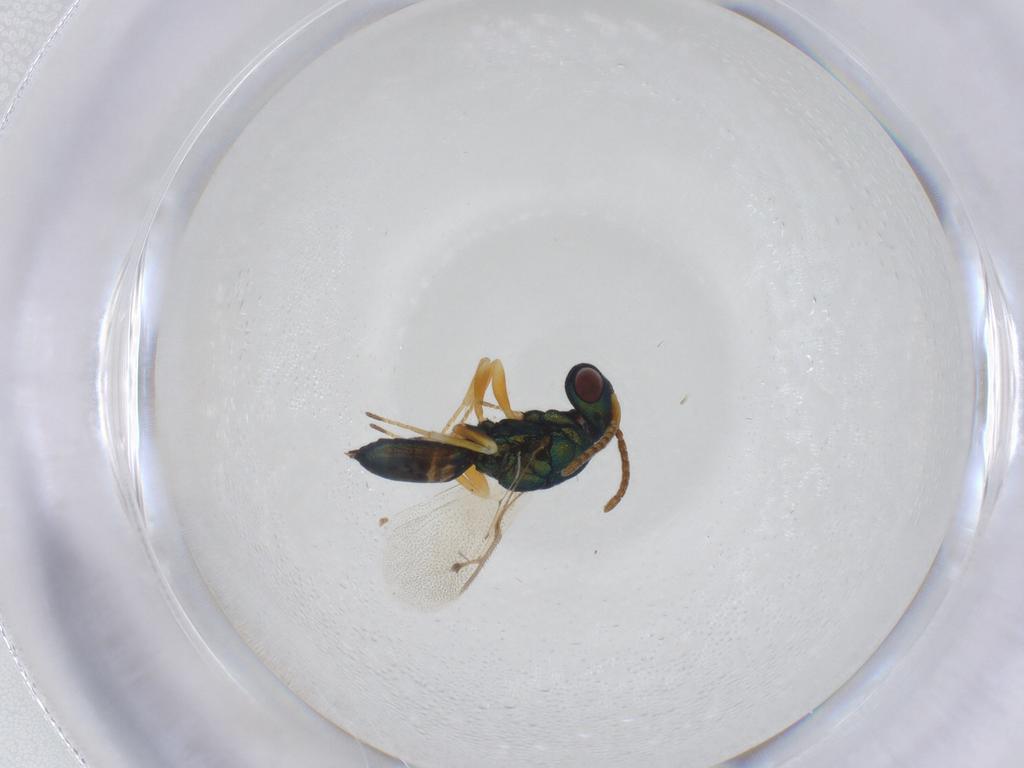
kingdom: Animalia
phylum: Arthropoda
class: Insecta
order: Hymenoptera
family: Pteromalidae
